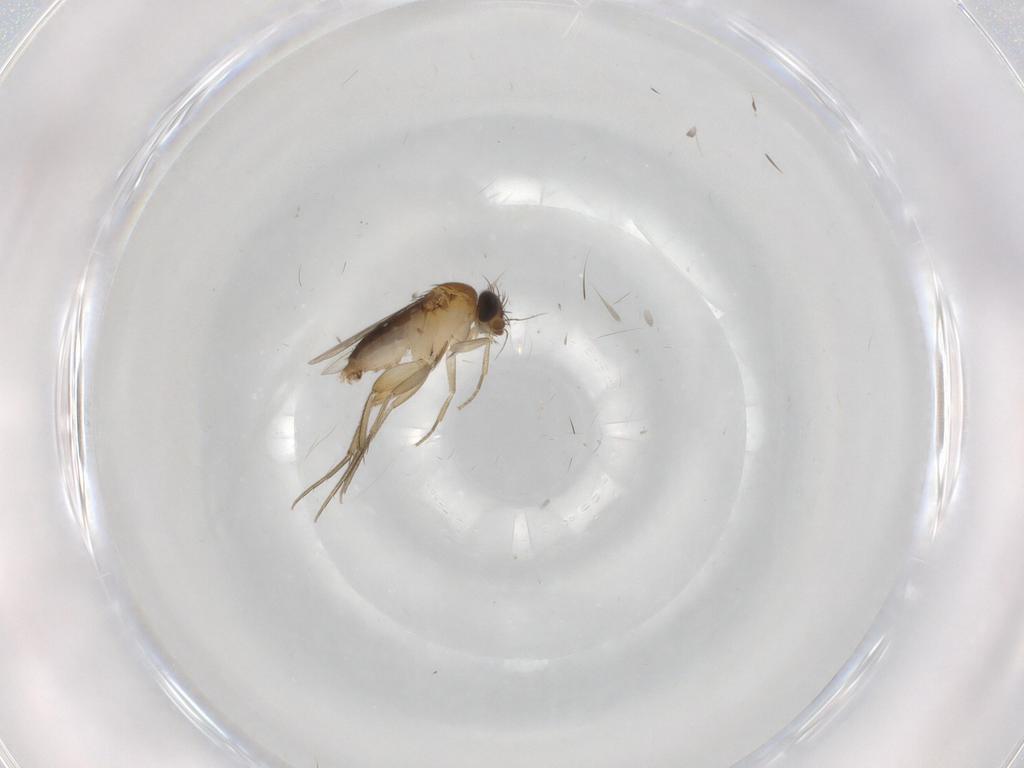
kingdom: Animalia
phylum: Arthropoda
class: Insecta
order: Diptera
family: Phoridae
